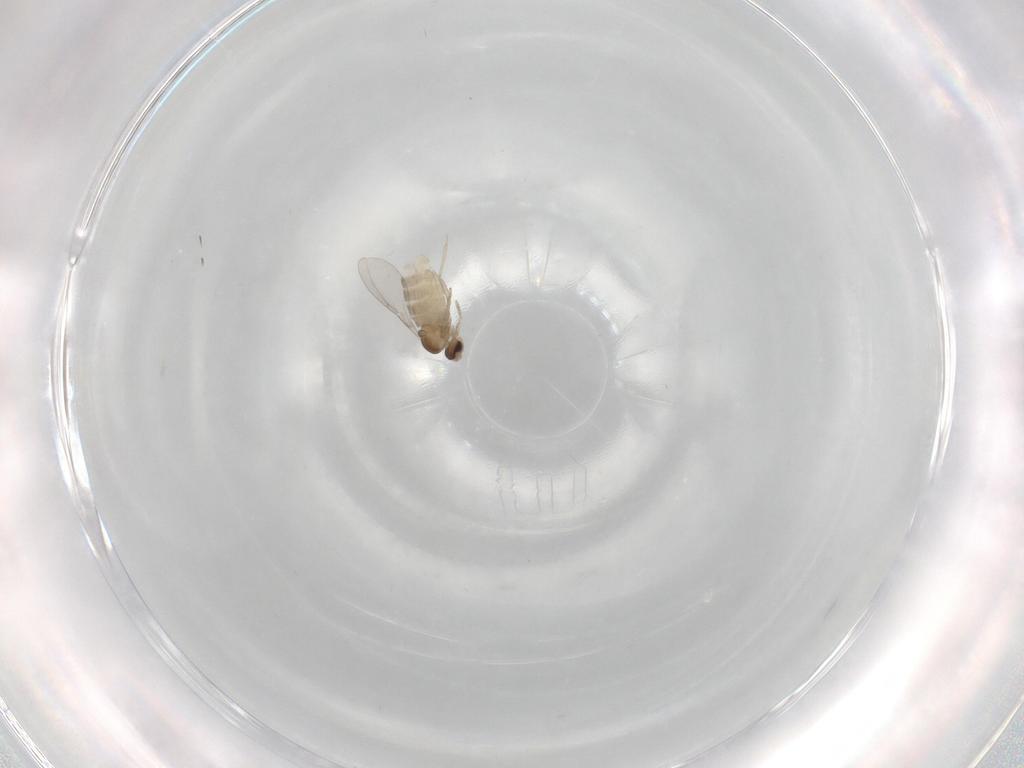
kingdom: Animalia
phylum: Arthropoda
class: Insecta
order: Diptera
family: Cecidomyiidae
